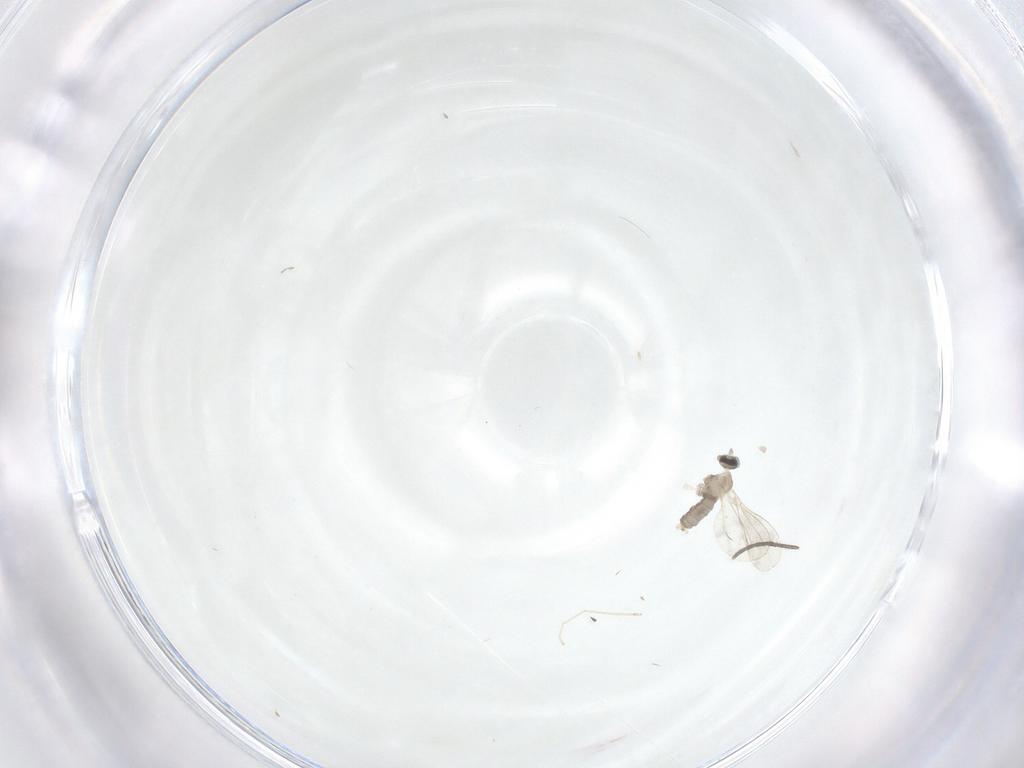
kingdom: Animalia
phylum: Arthropoda
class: Insecta
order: Diptera
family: Cecidomyiidae
